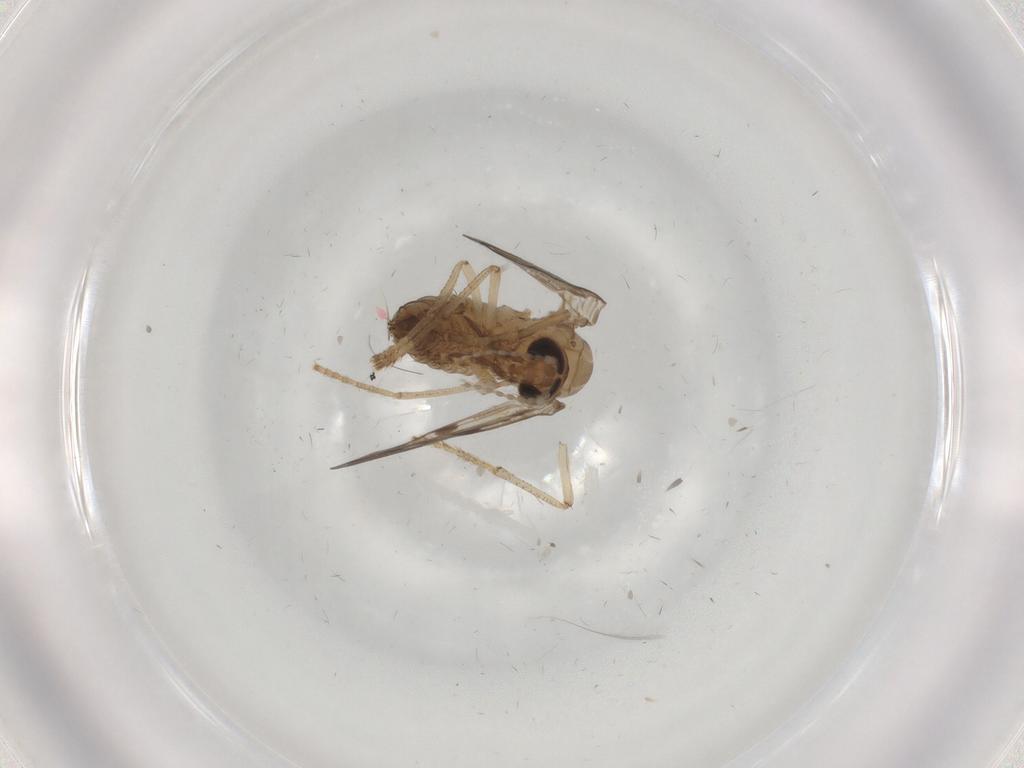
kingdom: Animalia
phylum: Arthropoda
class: Insecta
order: Diptera
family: Psychodidae
